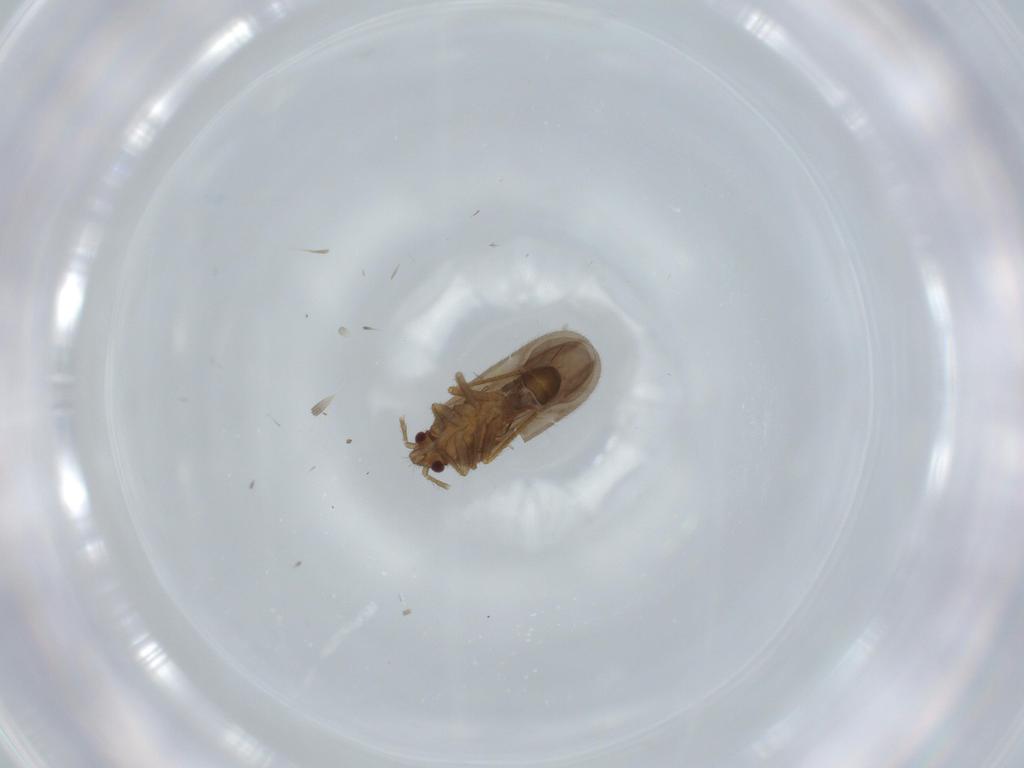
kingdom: Animalia
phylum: Arthropoda
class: Insecta
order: Hemiptera
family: Ceratocombidae
